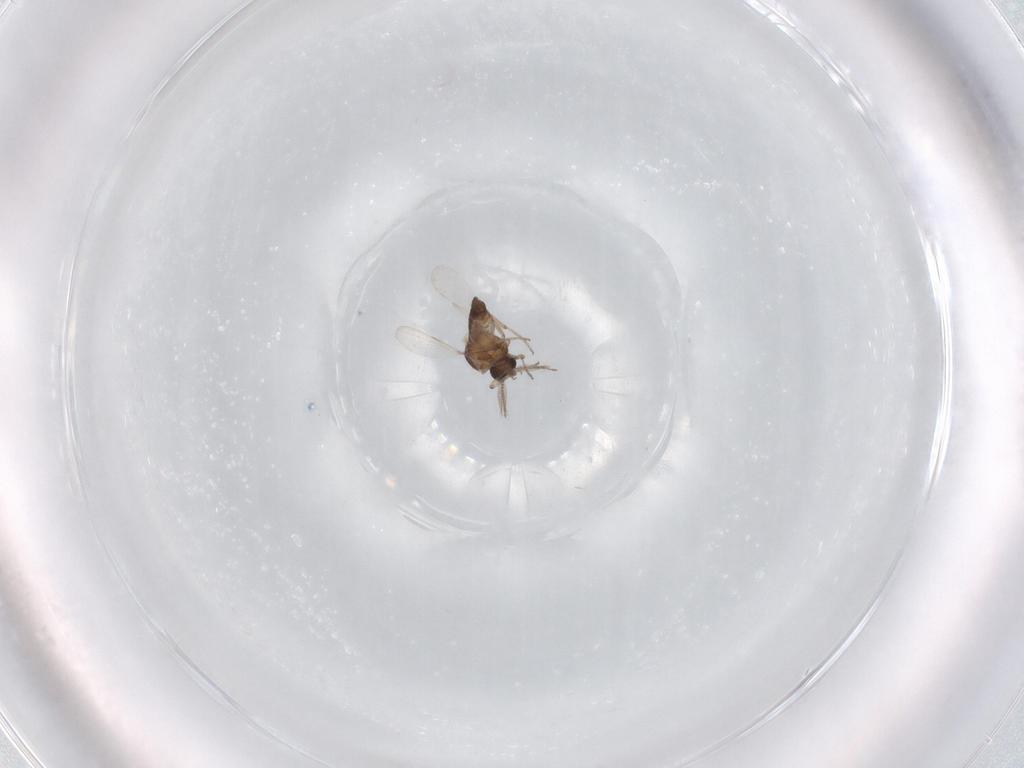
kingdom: Animalia
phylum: Arthropoda
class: Insecta
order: Diptera
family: Ceratopogonidae
